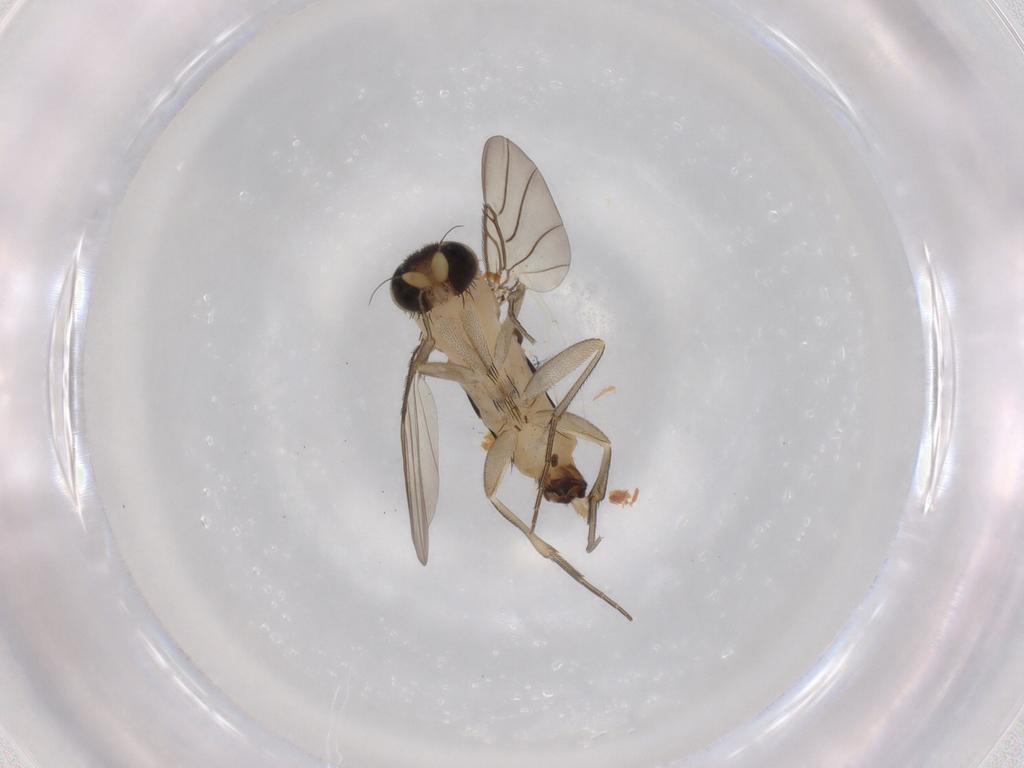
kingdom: Animalia
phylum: Arthropoda
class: Insecta
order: Diptera
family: Phoridae
